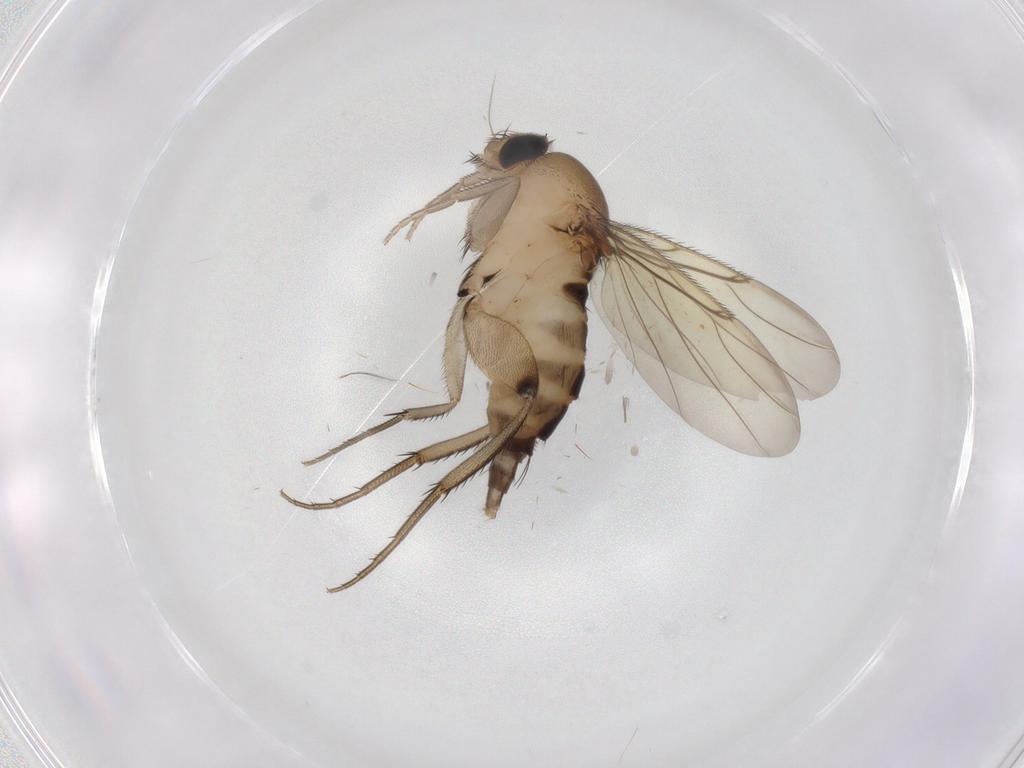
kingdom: Animalia
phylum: Arthropoda
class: Insecta
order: Diptera
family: Phoridae
